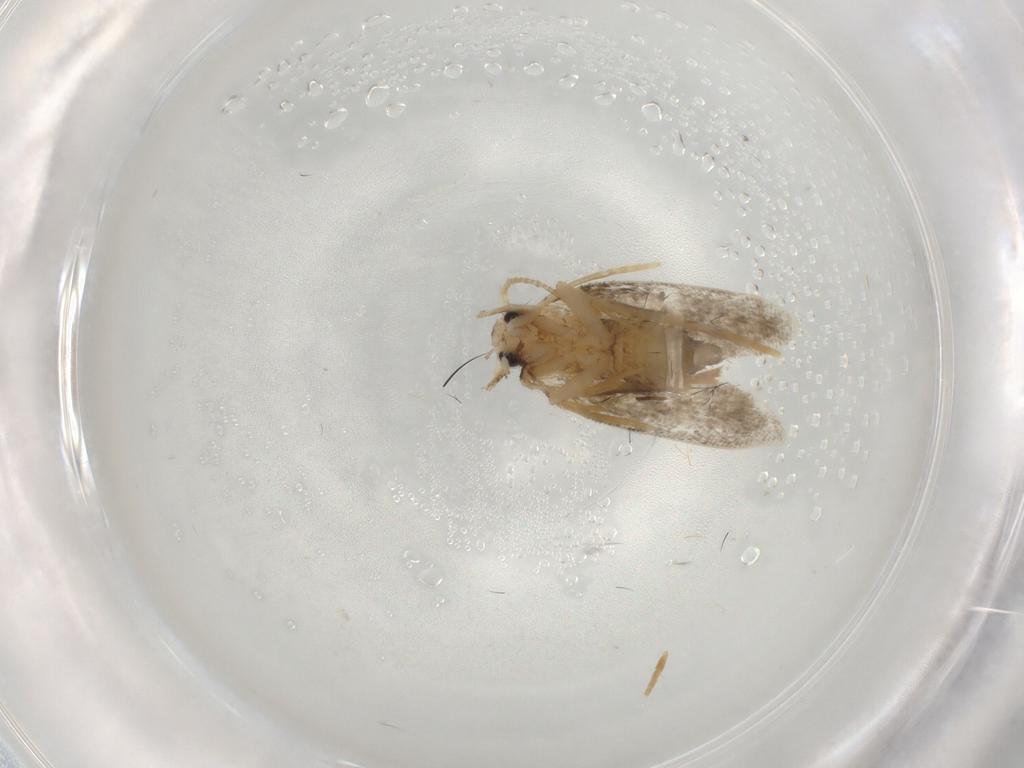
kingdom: Animalia
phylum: Arthropoda
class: Insecta
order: Lepidoptera
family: Psychidae
